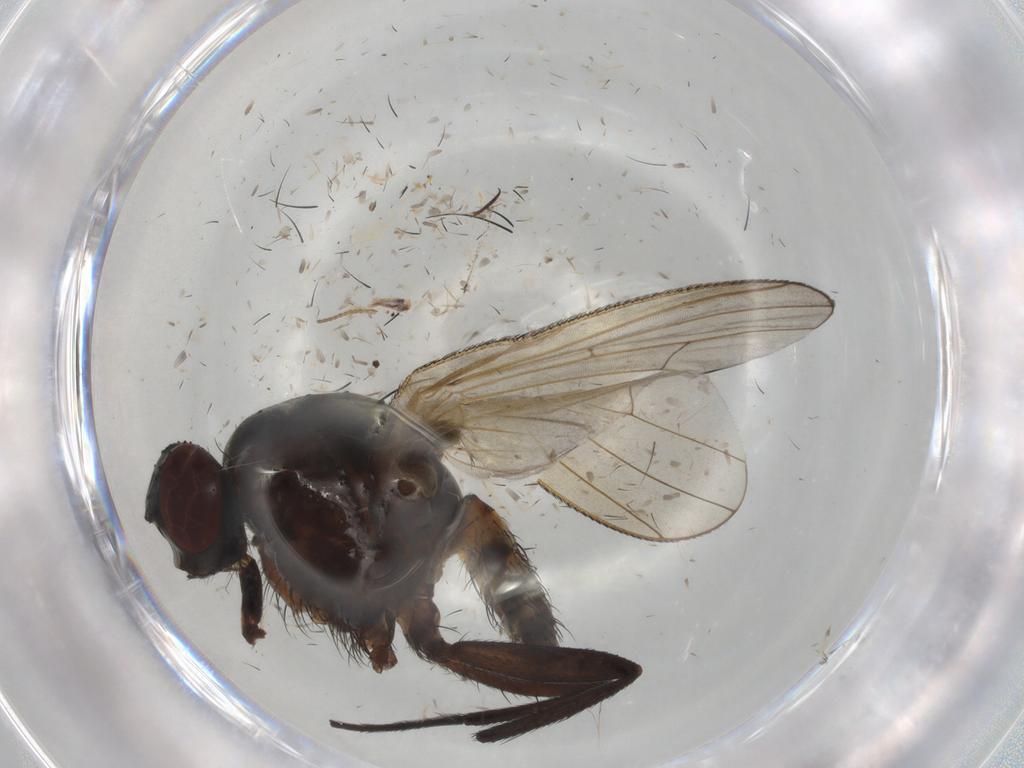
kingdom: Animalia
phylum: Arthropoda
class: Insecta
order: Diptera
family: Anthomyiidae
